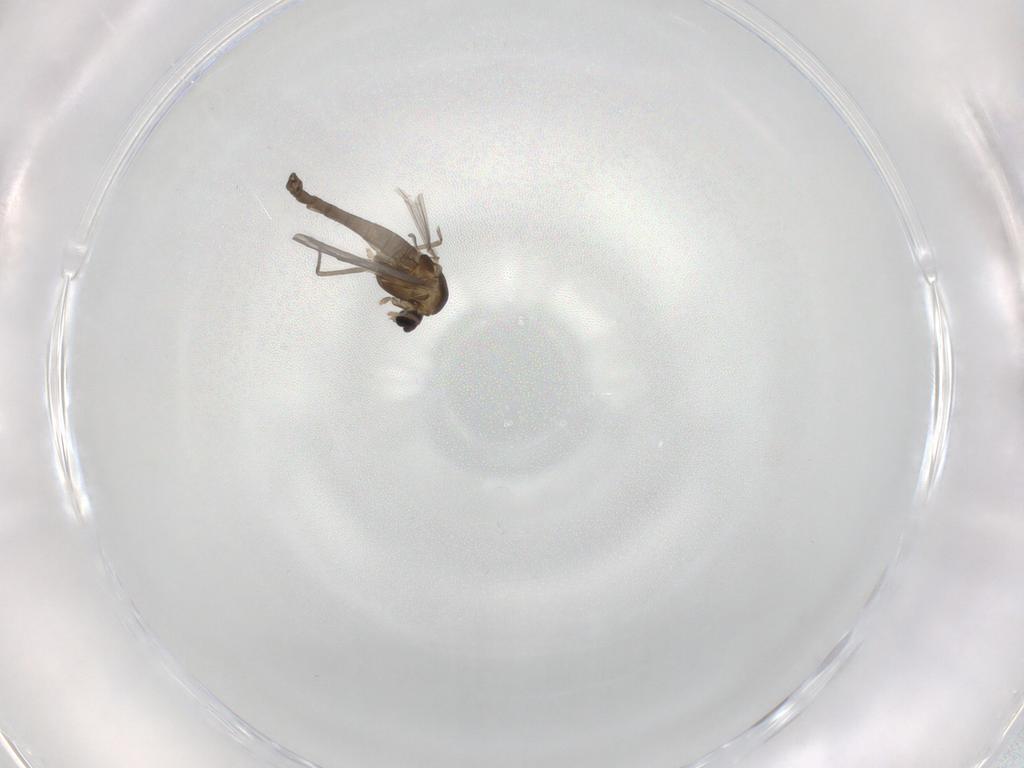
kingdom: Animalia
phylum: Arthropoda
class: Insecta
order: Diptera
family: Chironomidae
